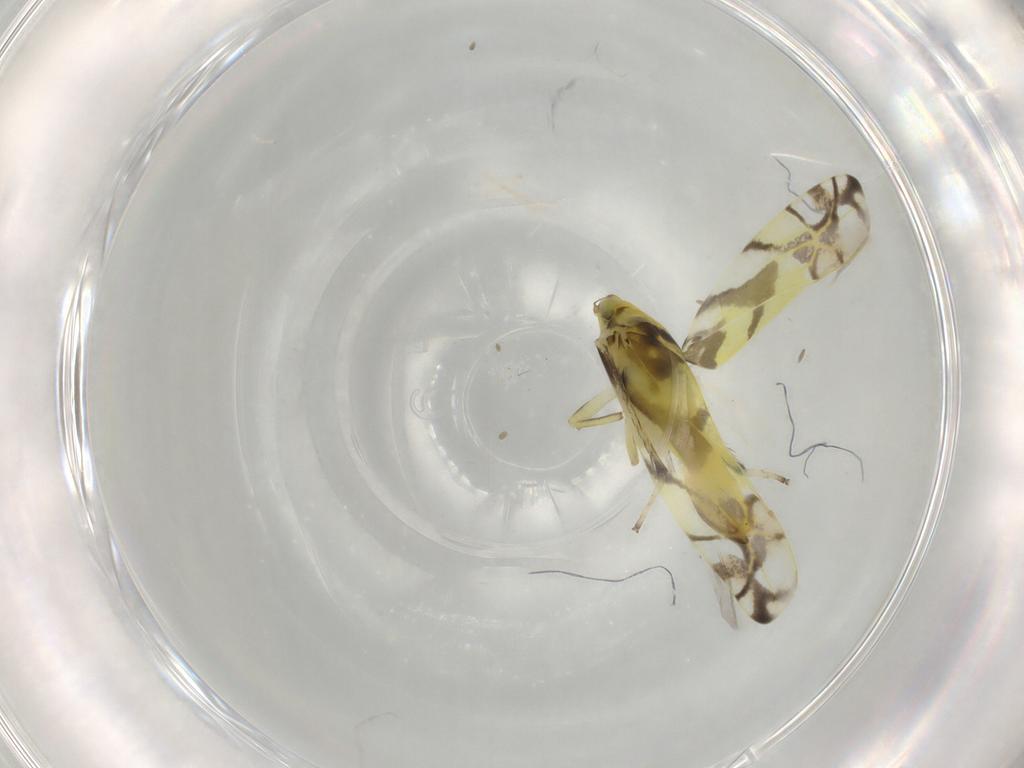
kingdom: Animalia
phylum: Arthropoda
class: Insecta
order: Hemiptera
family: Cicadellidae
